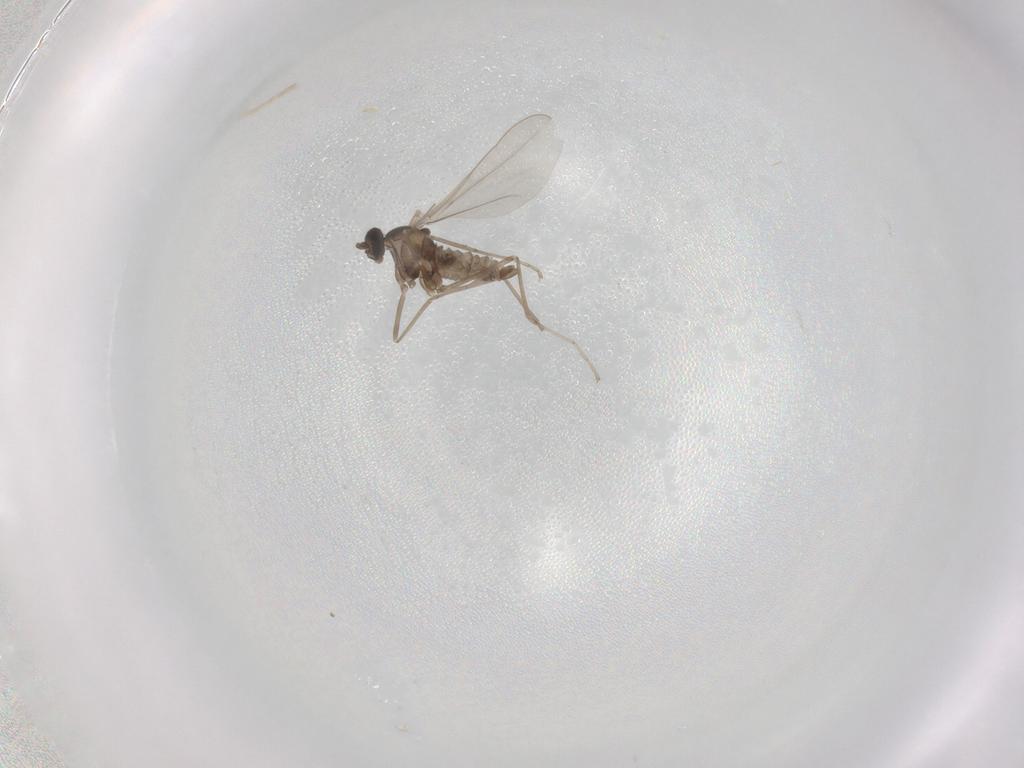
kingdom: Animalia
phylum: Arthropoda
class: Insecta
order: Diptera
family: Cecidomyiidae
